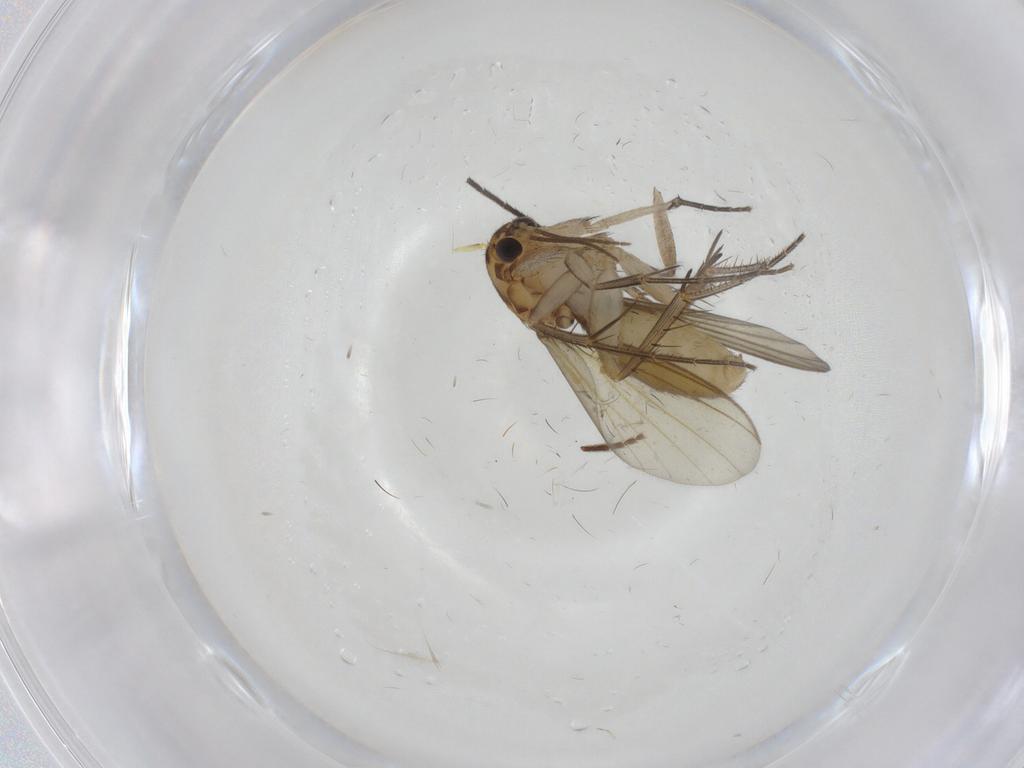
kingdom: Animalia
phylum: Arthropoda
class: Insecta
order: Diptera
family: Mycetophilidae
